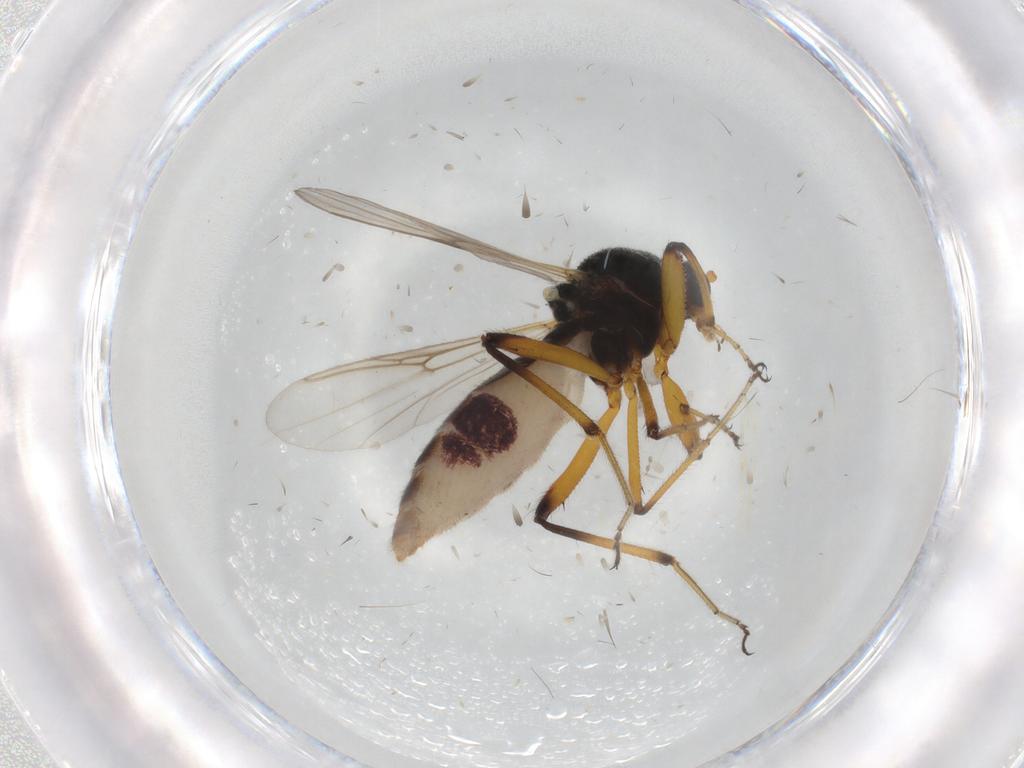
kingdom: Animalia
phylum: Arthropoda
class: Insecta
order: Diptera
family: Ceratopogonidae
